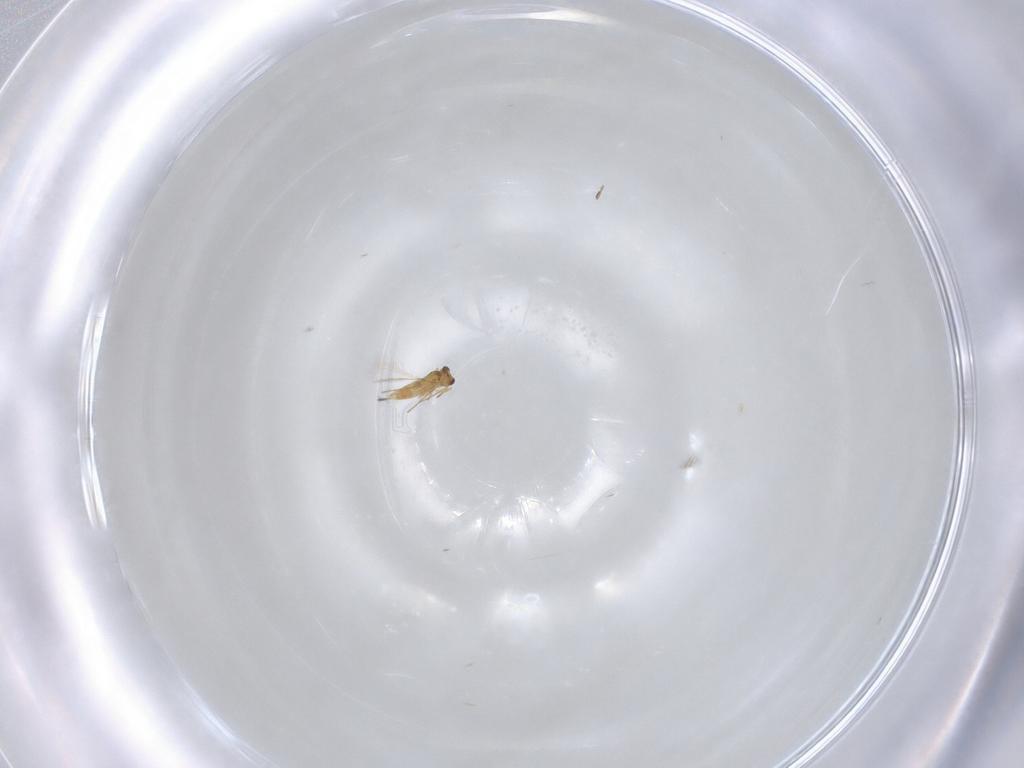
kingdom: Animalia
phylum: Arthropoda
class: Insecta
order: Hymenoptera
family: Mymaridae
